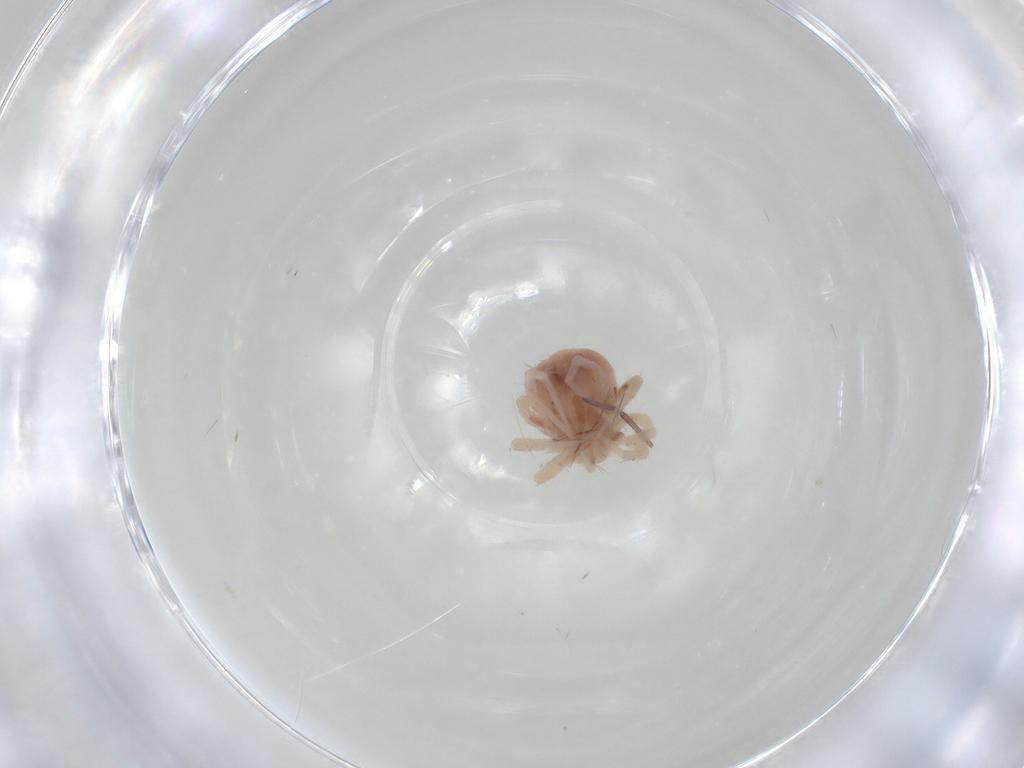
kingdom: Animalia
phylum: Arthropoda
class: Arachnida
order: Trombidiformes
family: Anystidae
